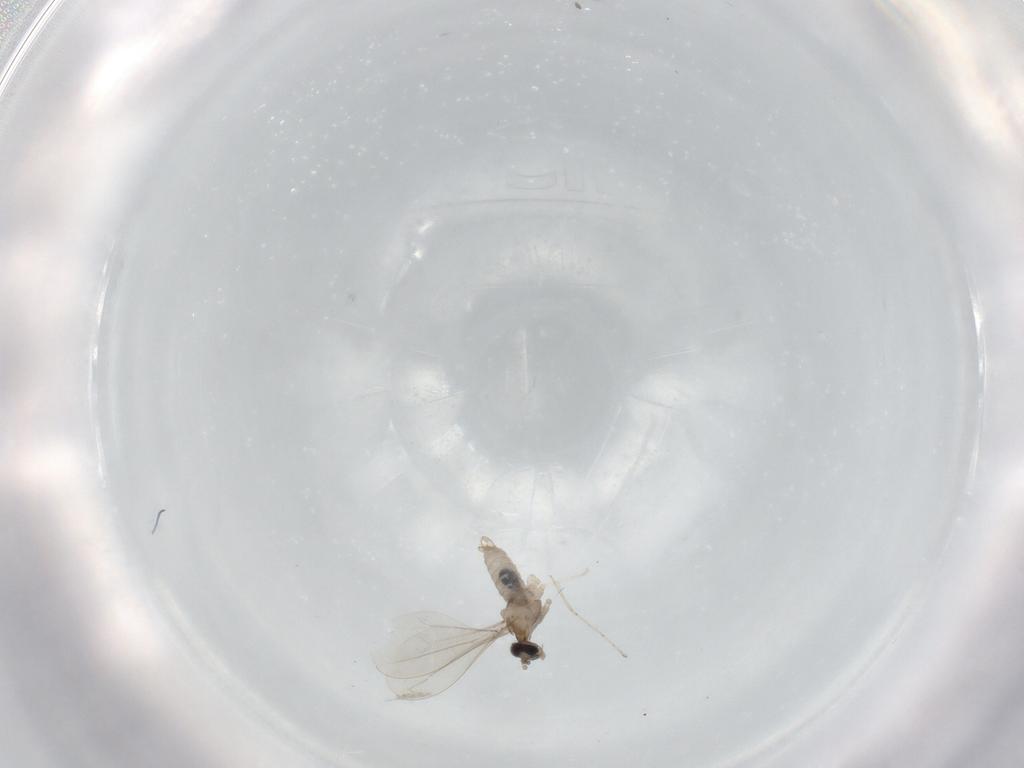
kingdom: Animalia
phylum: Arthropoda
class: Insecta
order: Diptera
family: Cecidomyiidae
